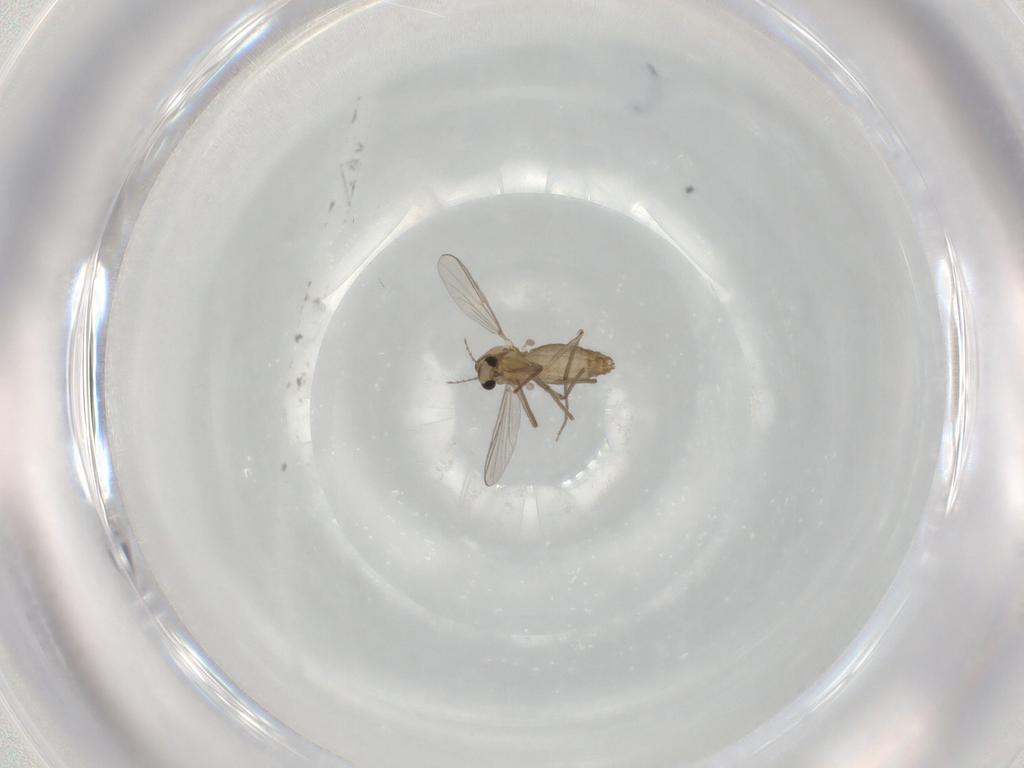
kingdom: Animalia
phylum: Arthropoda
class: Insecta
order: Diptera
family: Chironomidae
